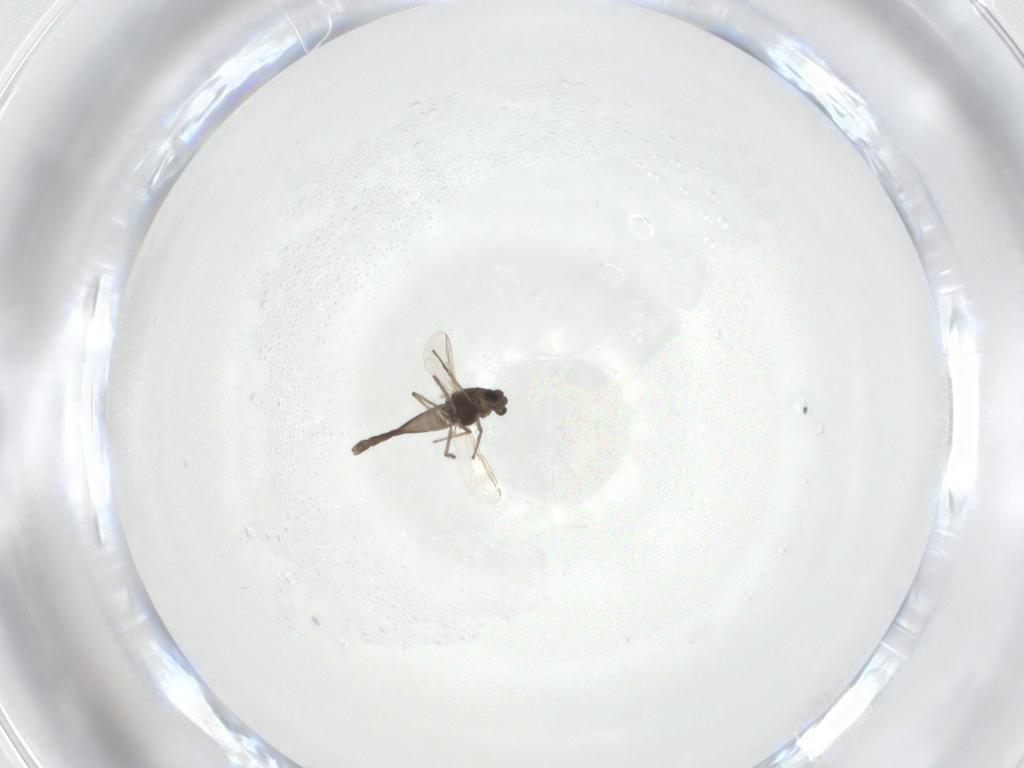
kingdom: Animalia
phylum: Arthropoda
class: Insecta
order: Diptera
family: Chironomidae
